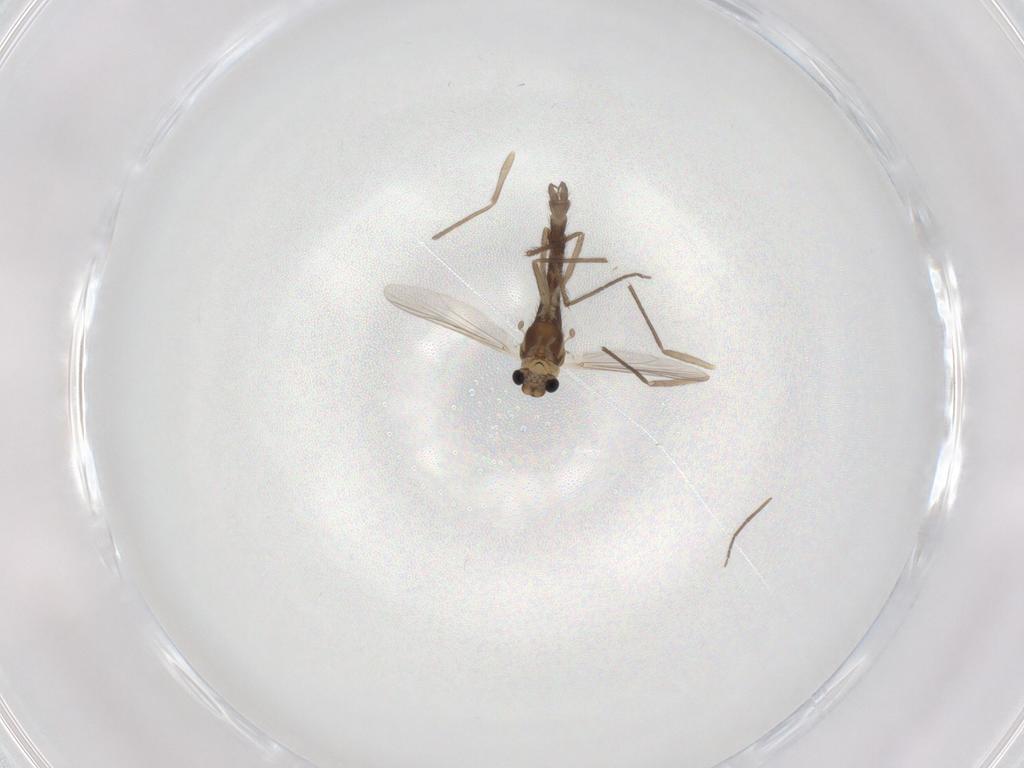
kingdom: Animalia
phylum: Arthropoda
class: Insecta
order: Diptera
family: Chironomidae
